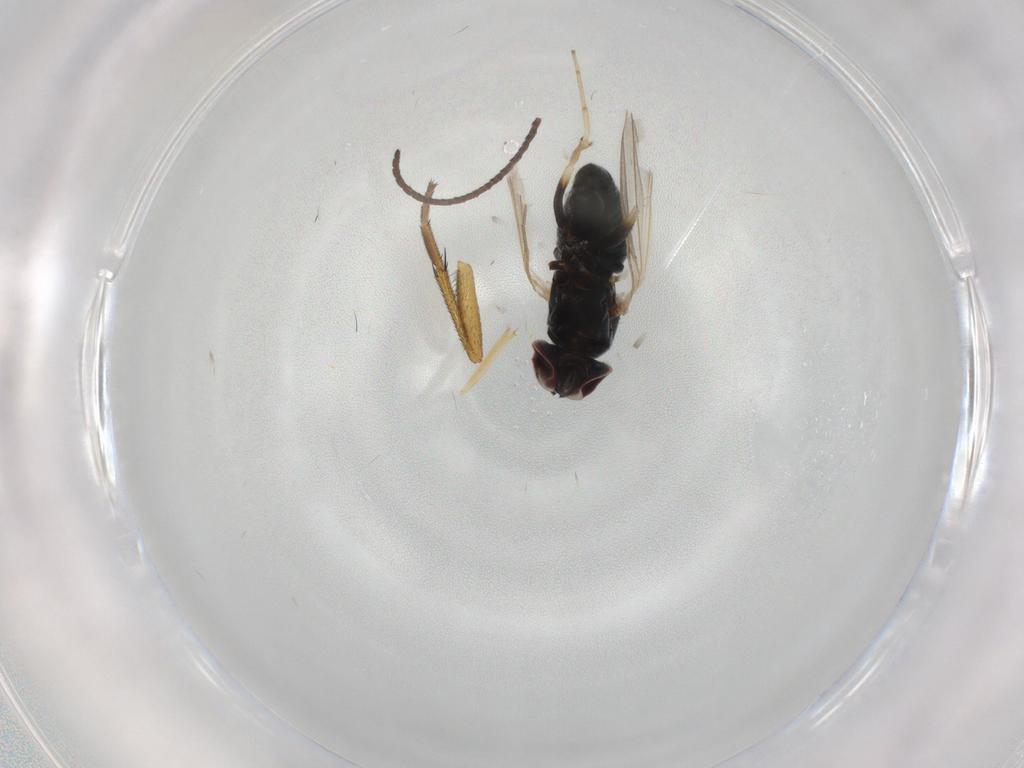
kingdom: Animalia
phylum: Arthropoda
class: Insecta
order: Diptera
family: Dolichopodidae
